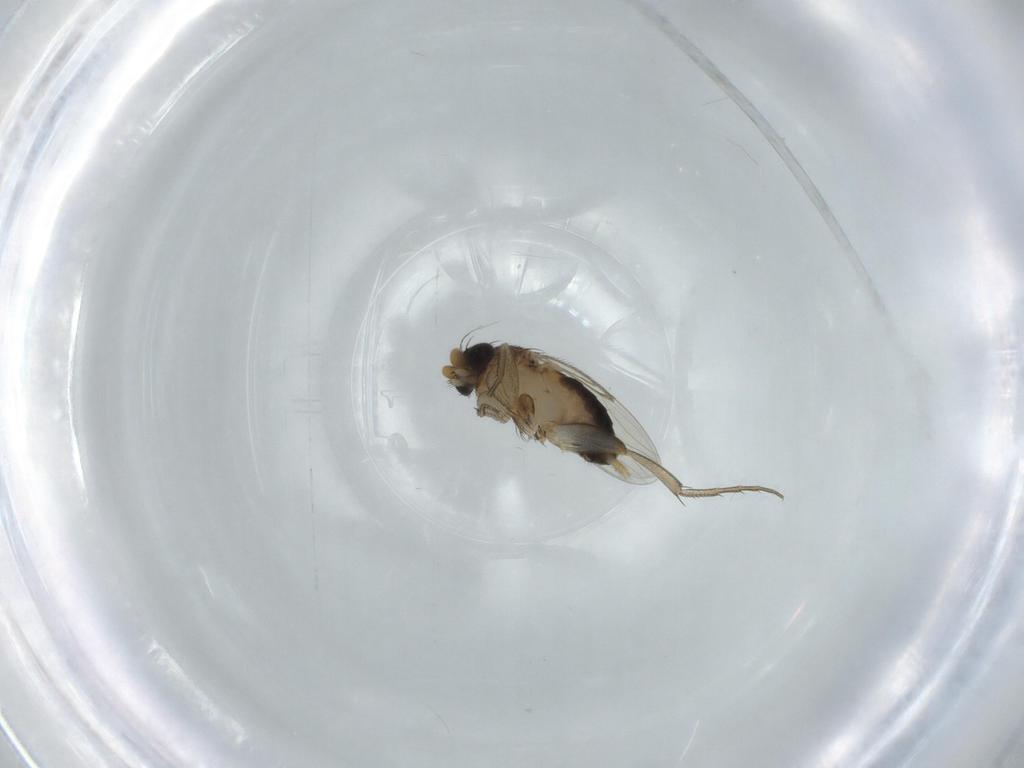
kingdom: Animalia
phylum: Arthropoda
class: Insecta
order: Diptera
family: Phoridae
